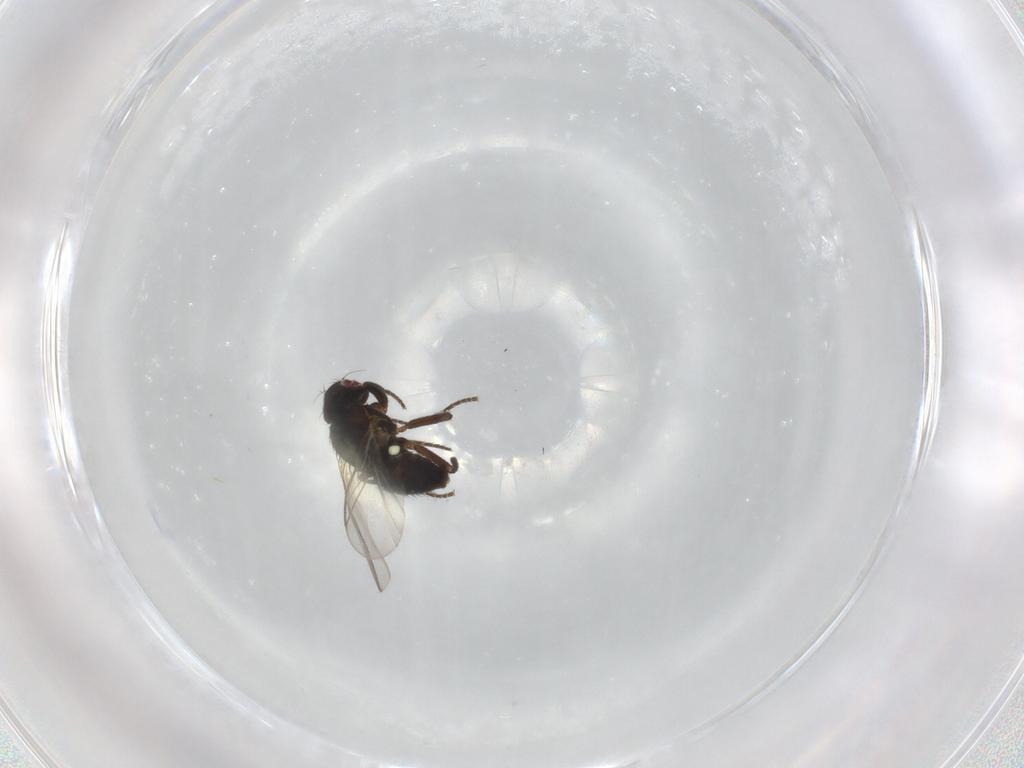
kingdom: Animalia
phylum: Arthropoda
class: Insecta
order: Diptera
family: Agromyzidae
